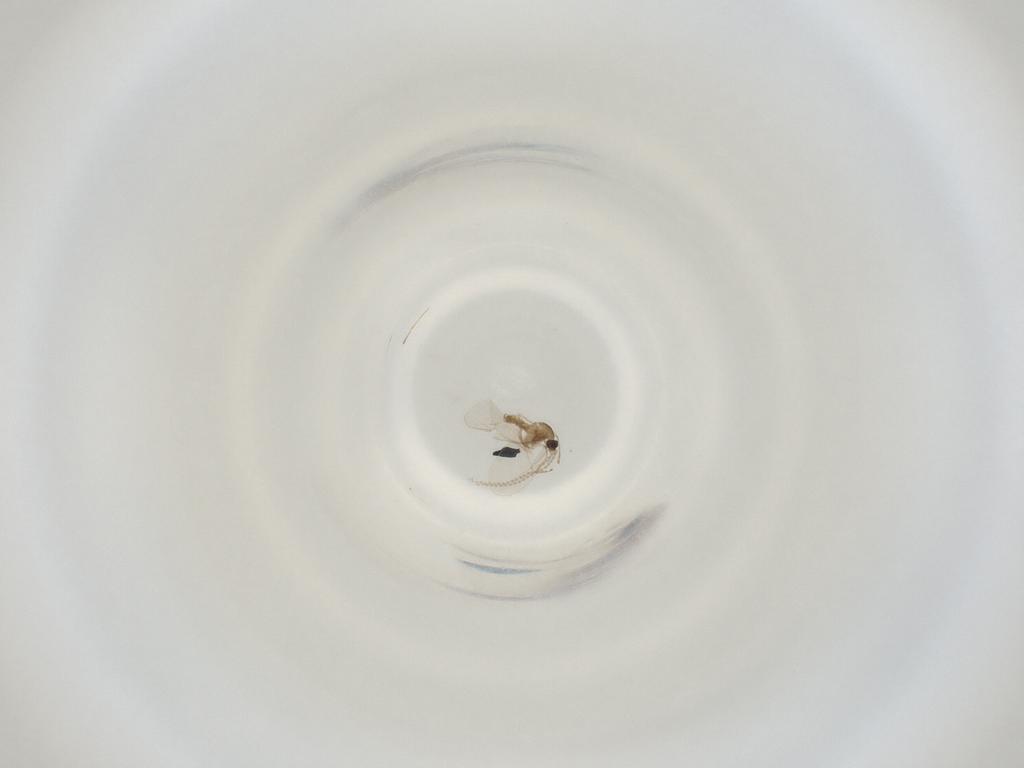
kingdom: Animalia
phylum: Arthropoda
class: Insecta
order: Diptera
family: Cecidomyiidae
